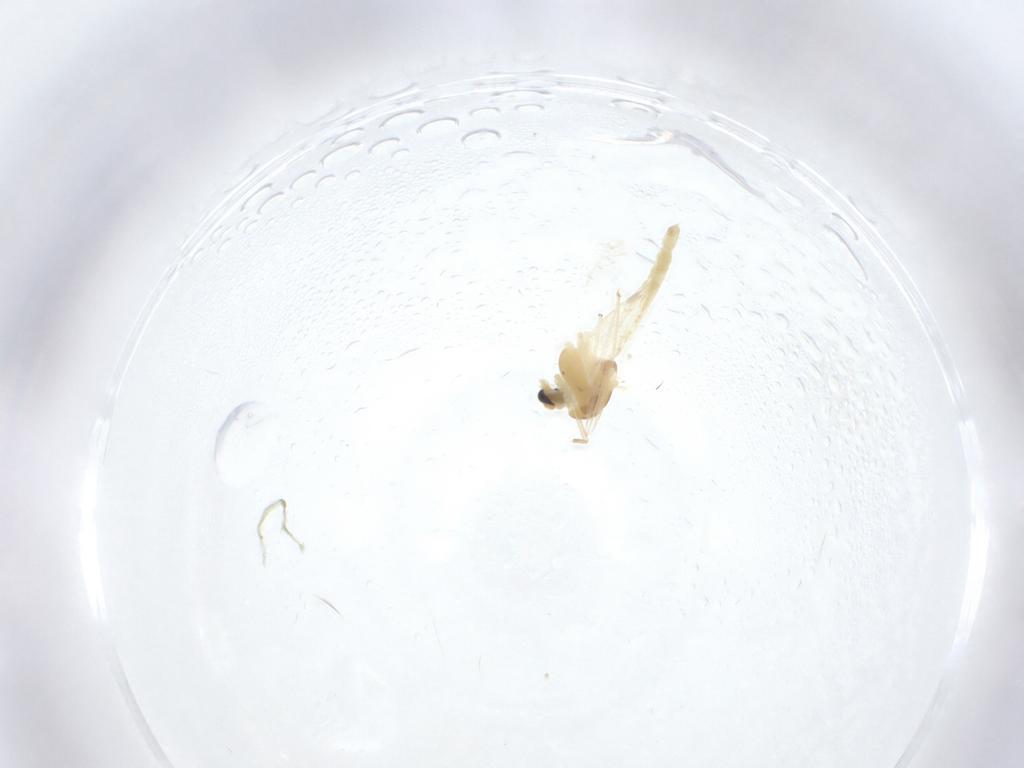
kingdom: Animalia
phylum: Arthropoda
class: Insecta
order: Diptera
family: Chironomidae
